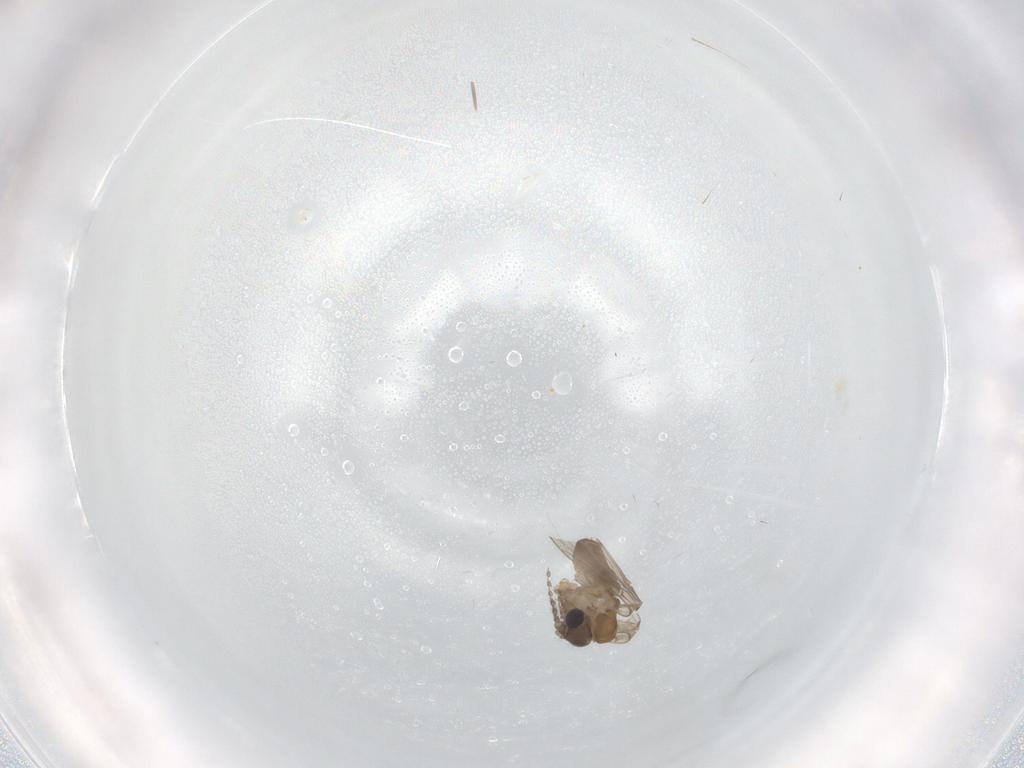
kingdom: Animalia
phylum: Arthropoda
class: Insecta
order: Diptera
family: Psychodidae
